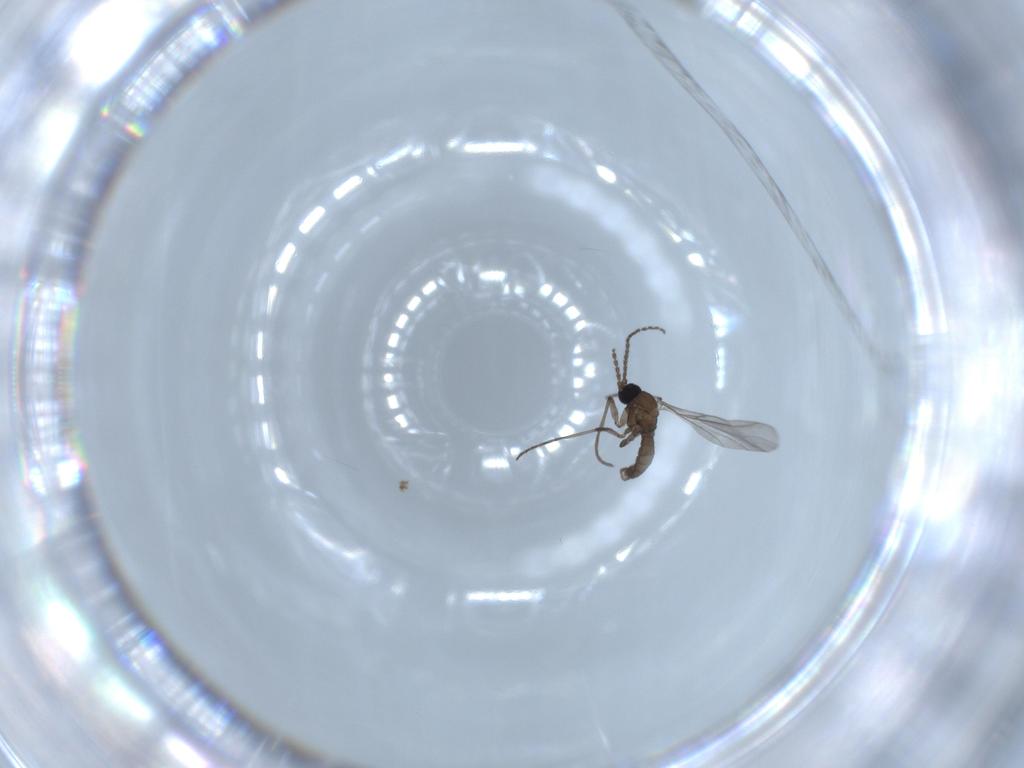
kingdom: Animalia
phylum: Arthropoda
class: Insecta
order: Diptera
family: Sciaridae
